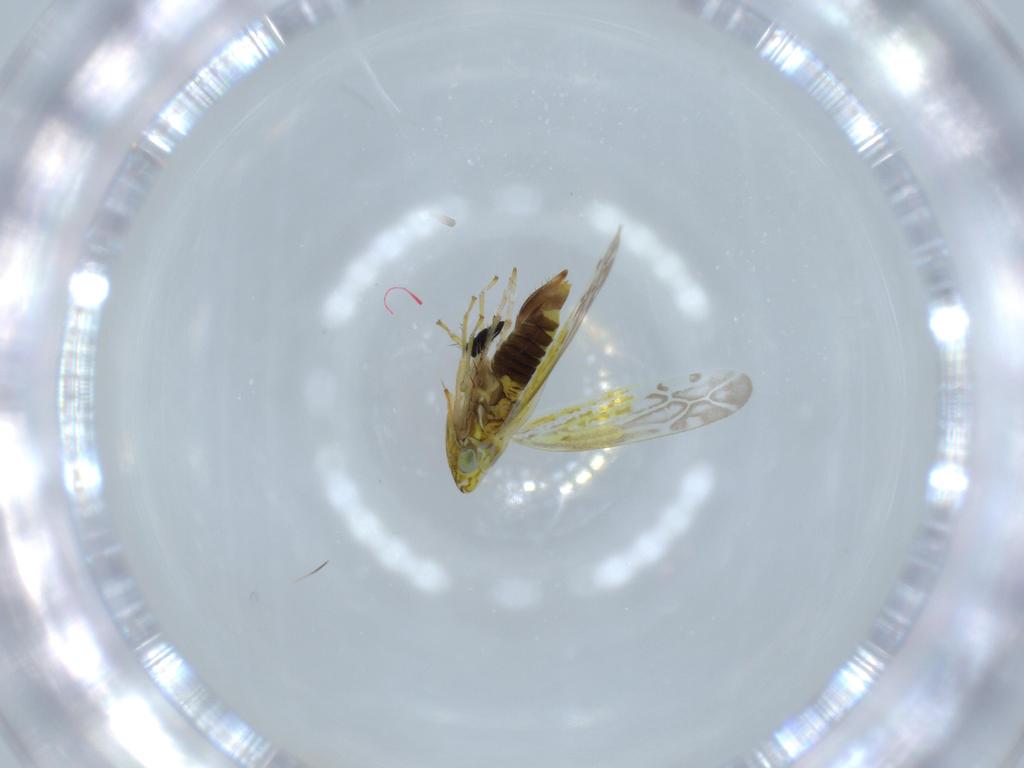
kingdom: Animalia
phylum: Arthropoda
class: Insecta
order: Hemiptera
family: Cicadellidae
